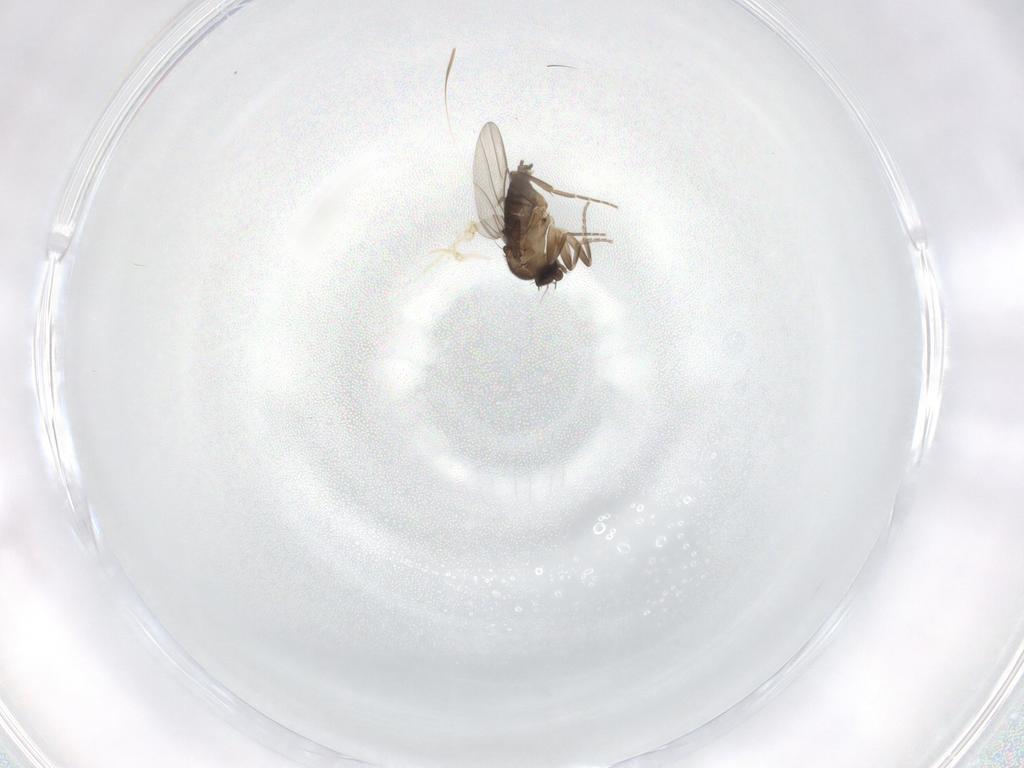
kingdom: Animalia
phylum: Arthropoda
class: Insecta
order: Diptera
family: Phoridae
